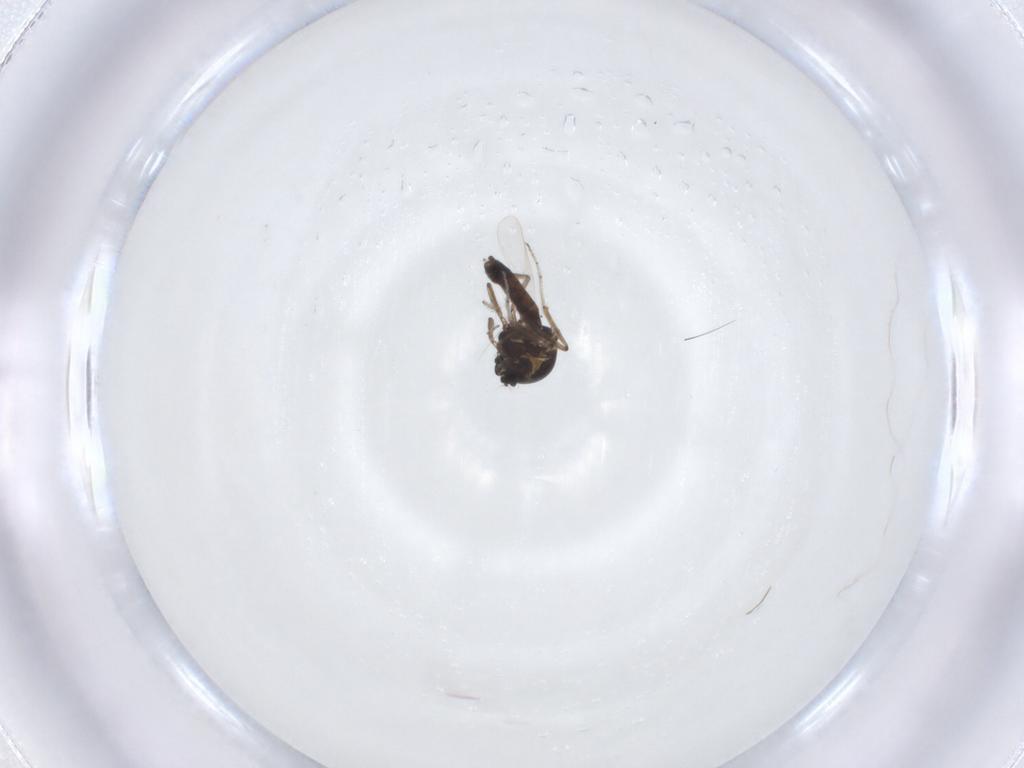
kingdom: Animalia
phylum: Arthropoda
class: Insecta
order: Diptera
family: Ceratopogonidae
